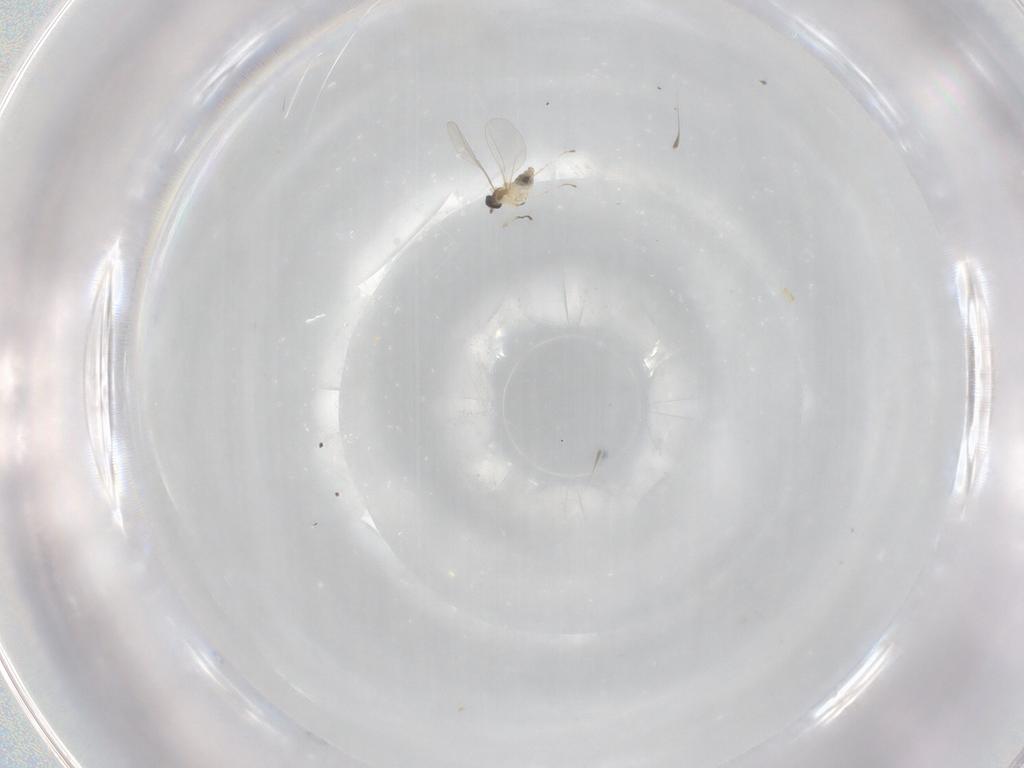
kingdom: Animalia
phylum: Arthropoda
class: Insecta
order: Diptera
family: Cecidomyiidae
